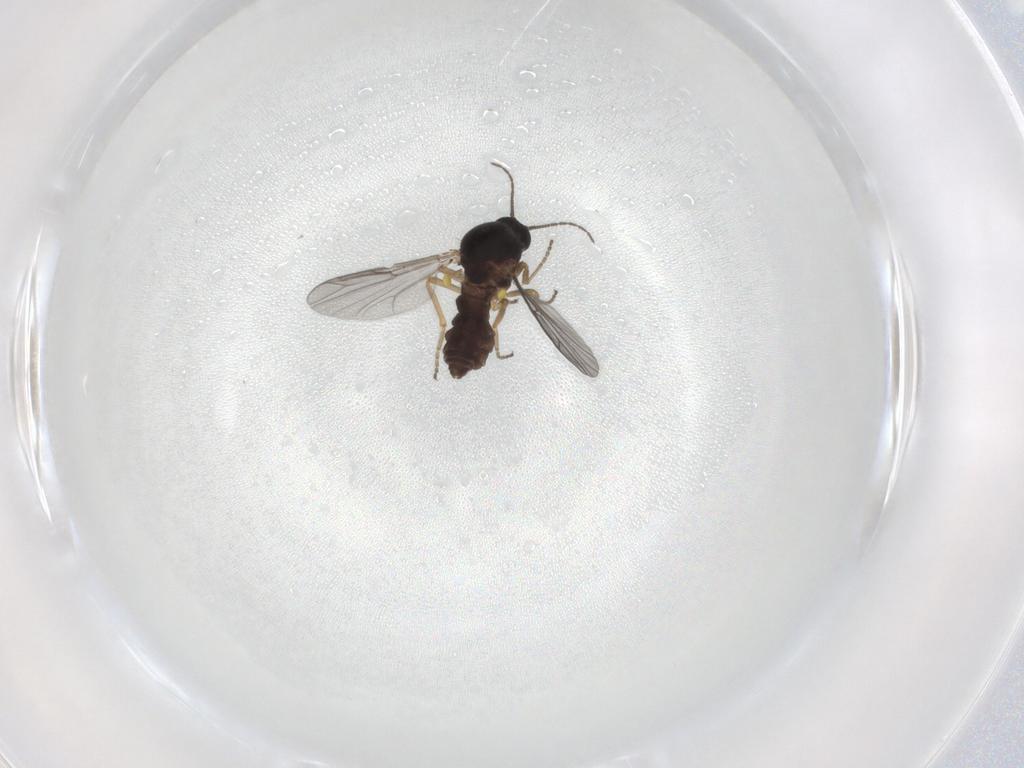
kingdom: Animalia
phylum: Arthropoda
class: Insecta
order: Diptera
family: Ceratopogonidae
